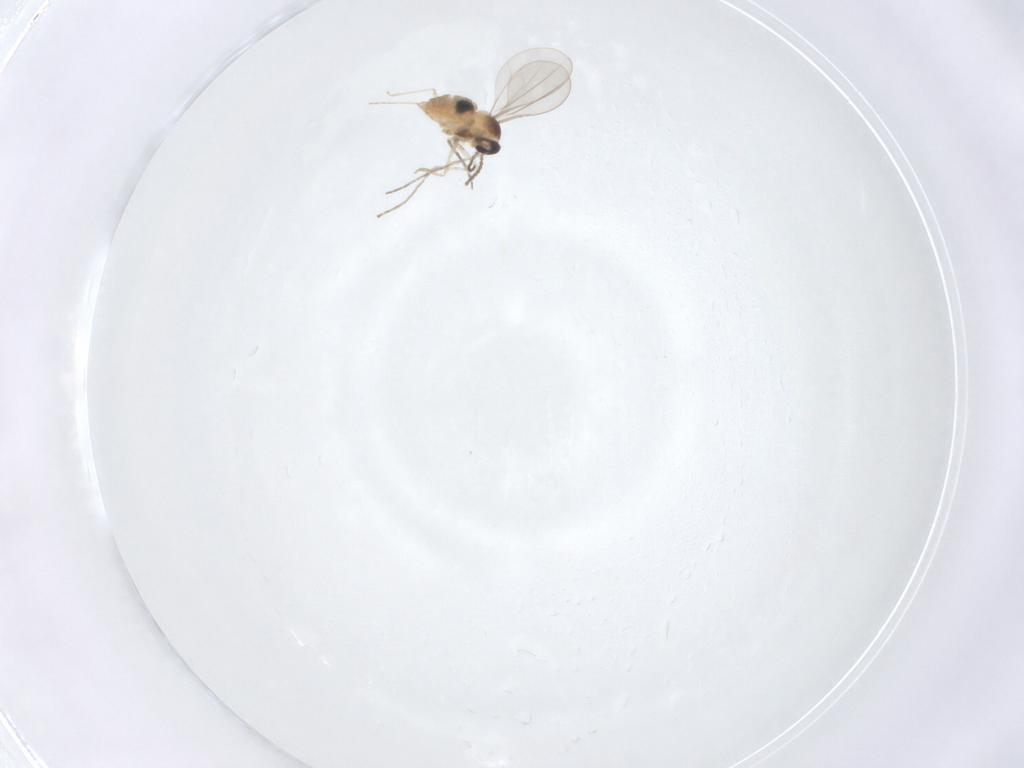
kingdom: Animalia
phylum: Arthropoda
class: Insecta
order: Diptera
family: Cecidomyiidae
